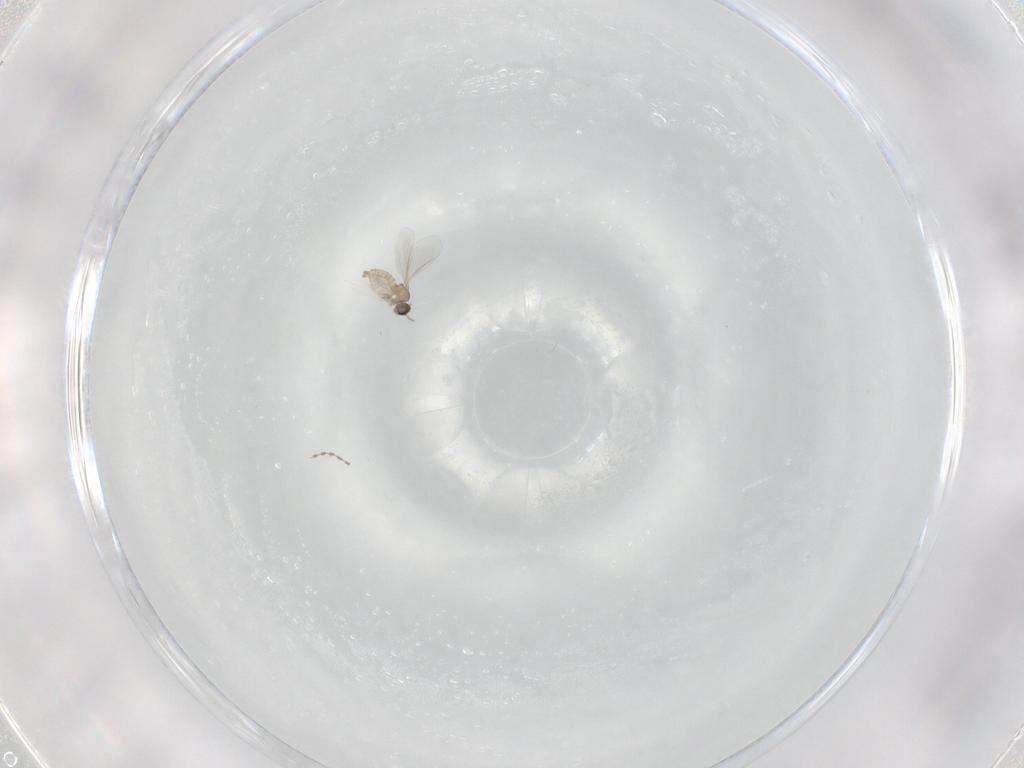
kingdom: Animalia
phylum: Arthropoda
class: Insecta
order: Diptera
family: Cecidomyiidae
